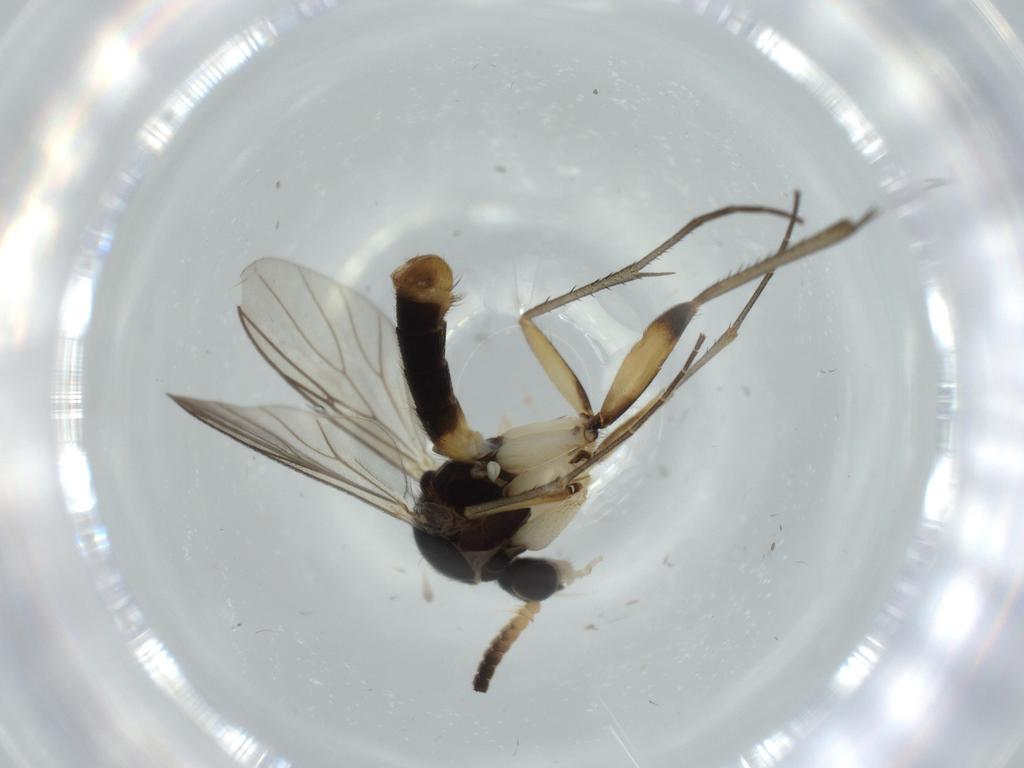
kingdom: Animalia
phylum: Arthropoda
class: Insecta
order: Diptera
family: Cecidomyiidae
